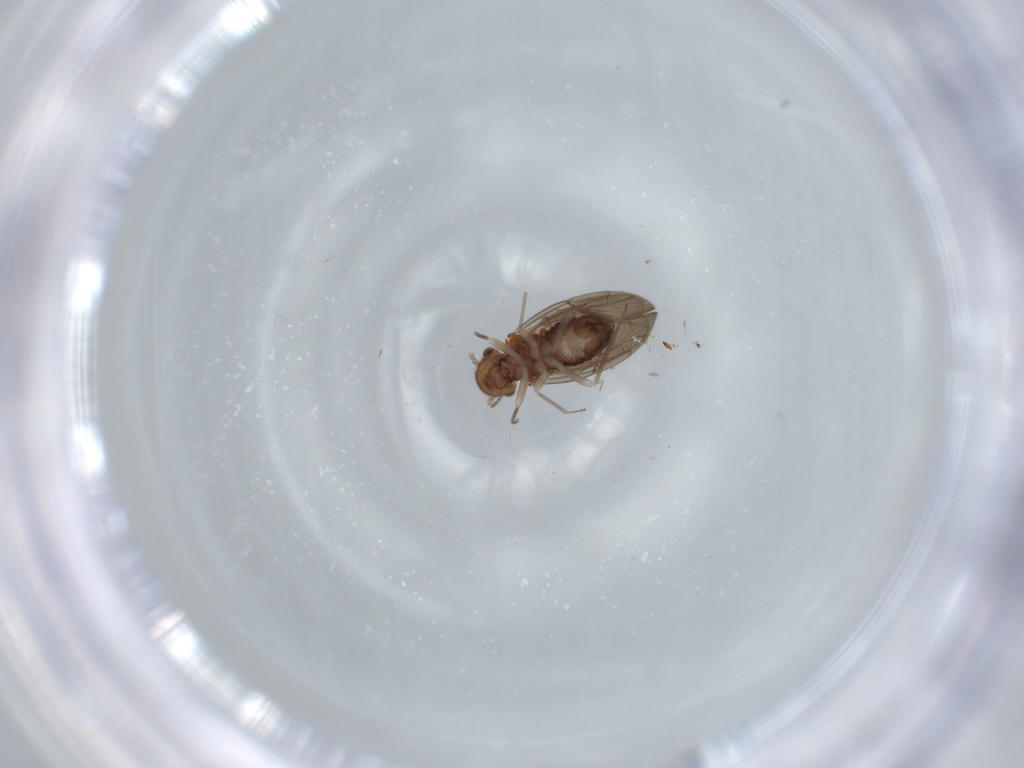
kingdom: Animalia
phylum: Arthropoda
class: Insecta
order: Psocodea
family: Ectopsocidae
